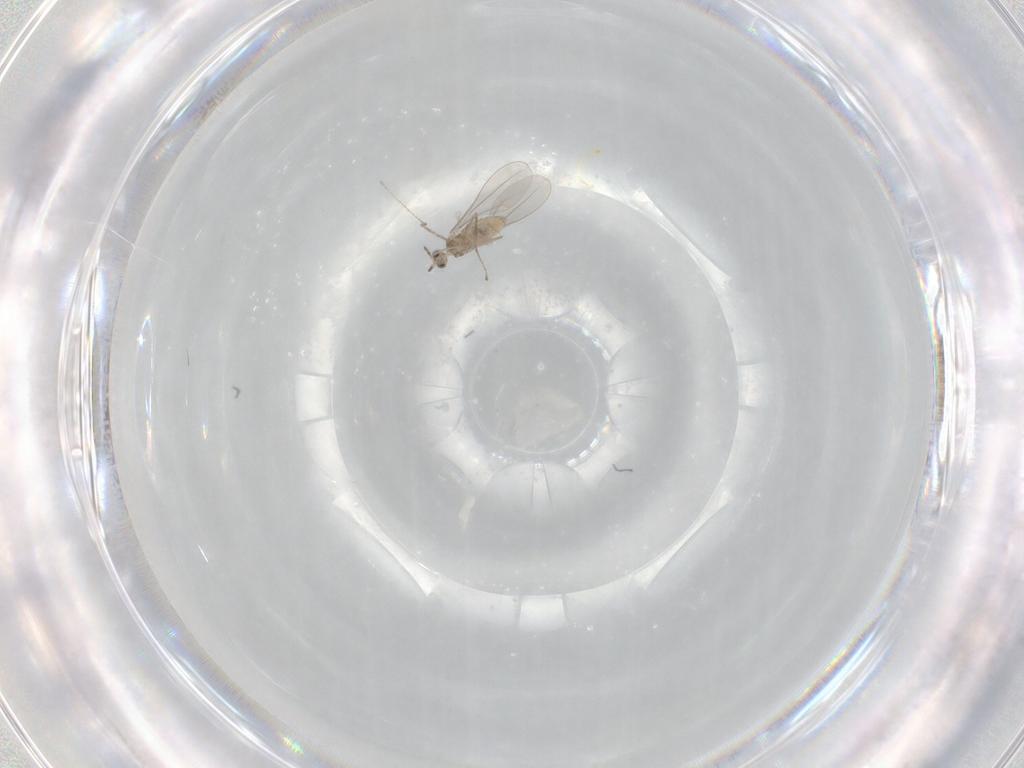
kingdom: Animalia
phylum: Arthropoda
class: Insecta
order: Diptera
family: Cecidomyiidae
